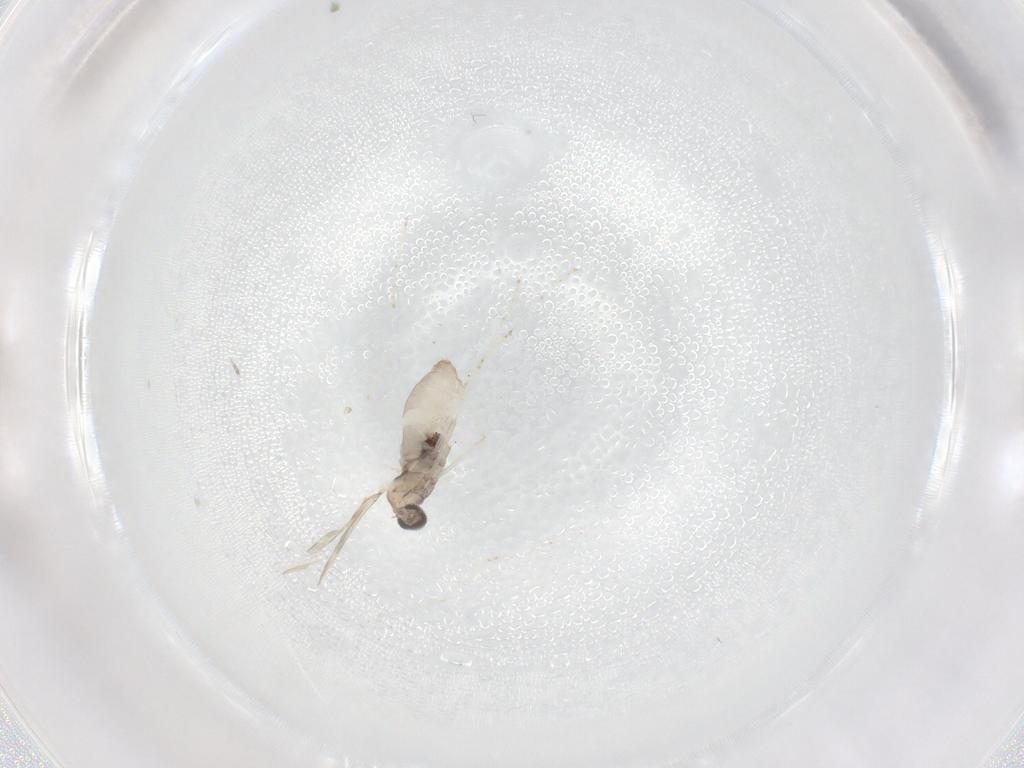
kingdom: Animalia
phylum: Arthropoda
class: Insecta
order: Diptera
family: Cecidomyiidae
